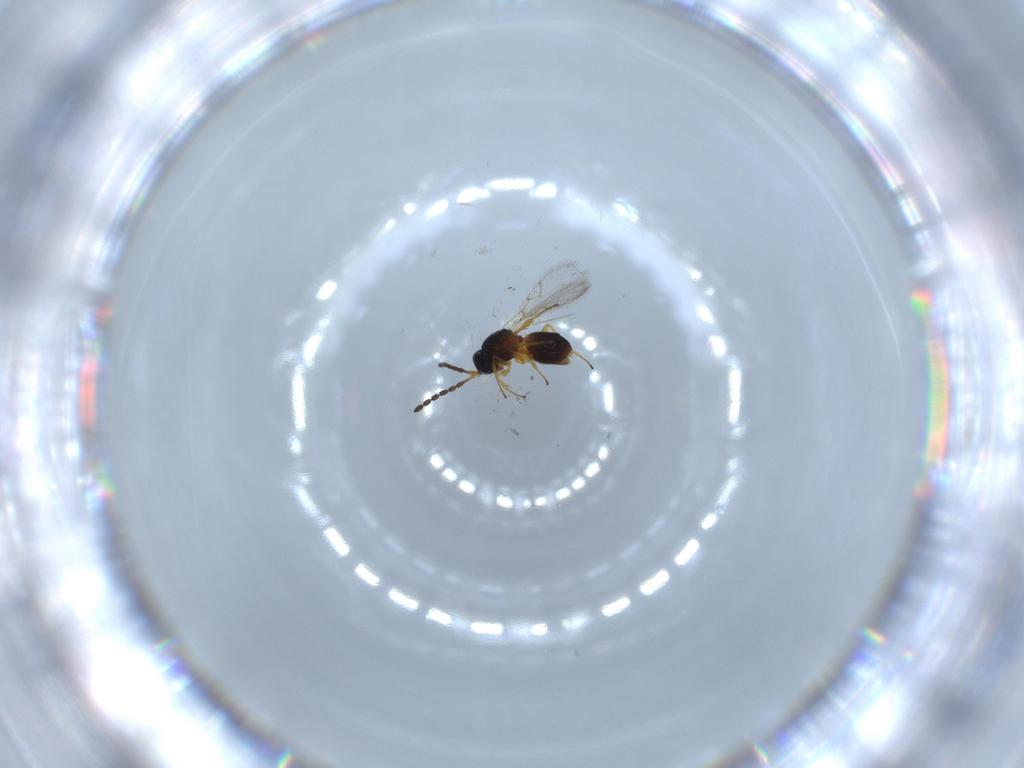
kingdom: Animalia
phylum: Arthropoda
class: Insecta
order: Hymenoptera
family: Figitidae
